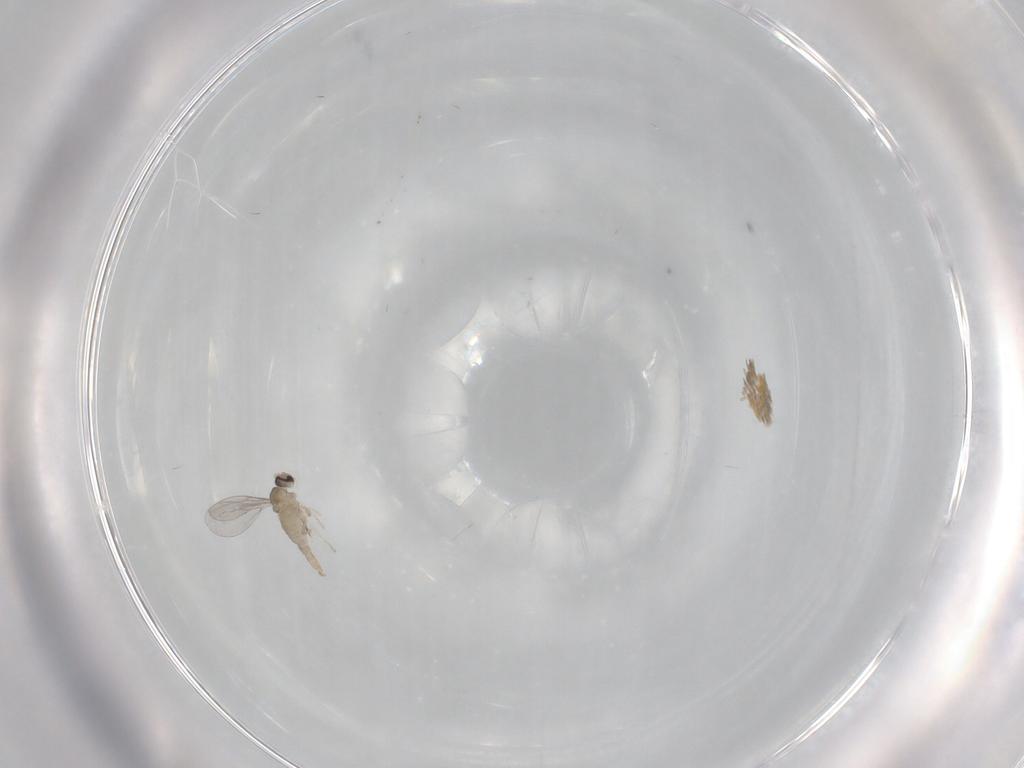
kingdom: Animalia
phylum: Arthropoda
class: Insecta
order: Diptera
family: Cecidomyiidae
